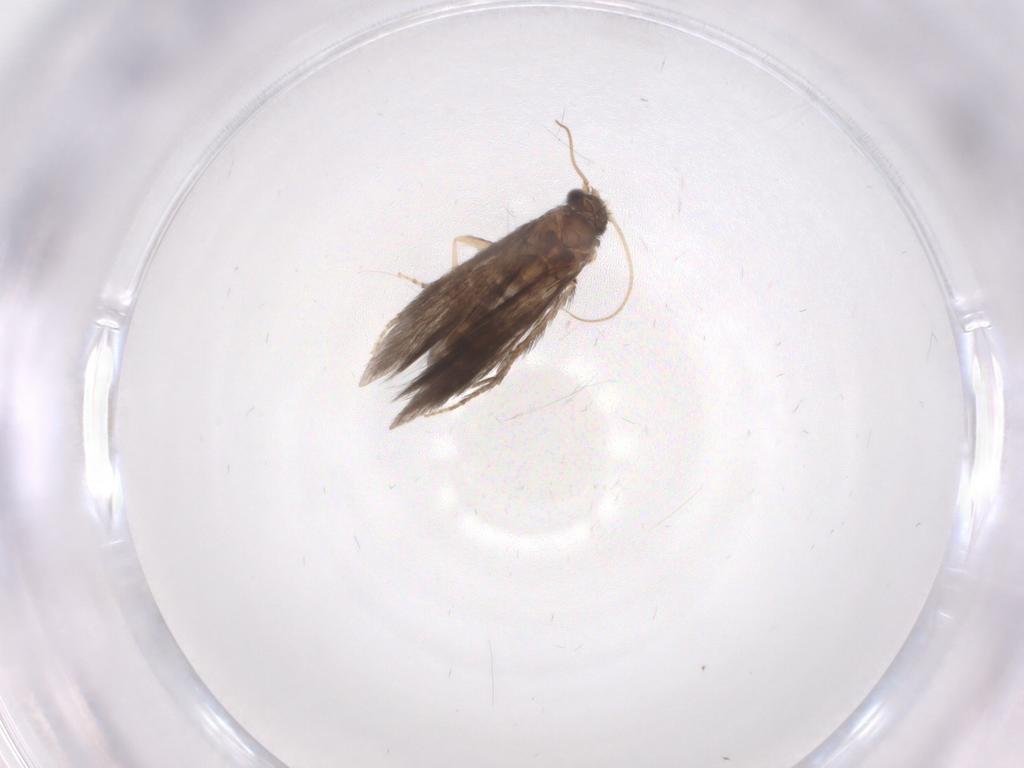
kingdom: Animalia
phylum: Arthropoda
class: Insecta
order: Trichoptera
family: Hydroptilidae
